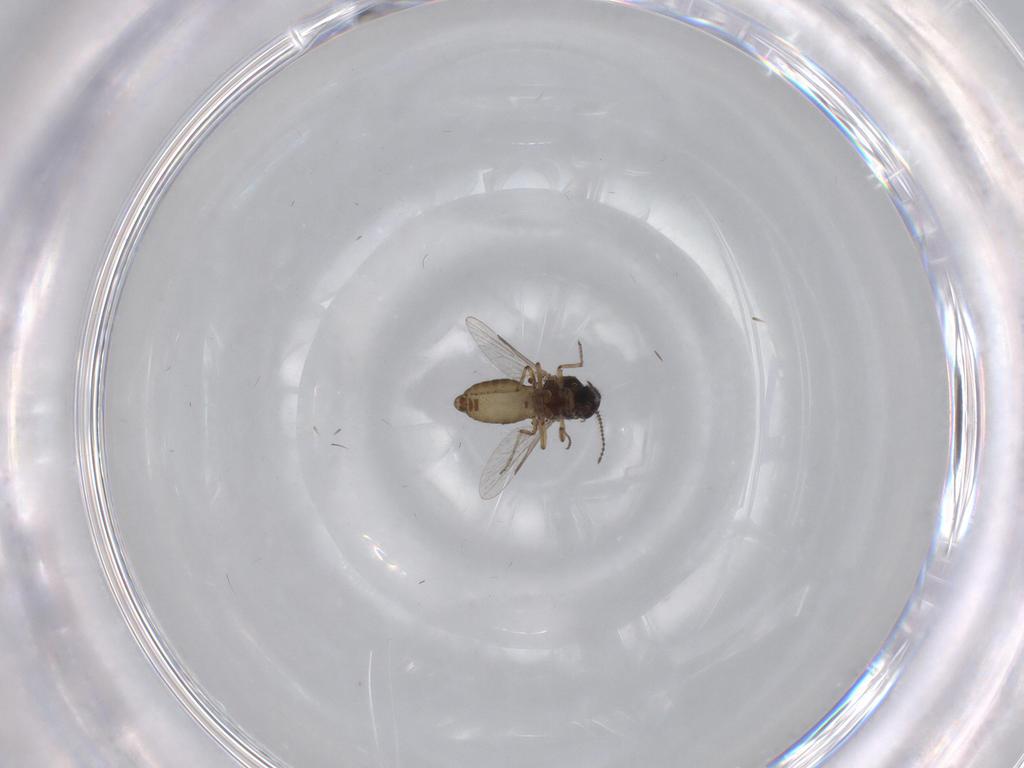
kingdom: Animalia
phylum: Arthropoda
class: Insecta
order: Diptera
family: Ceratopogonidae
